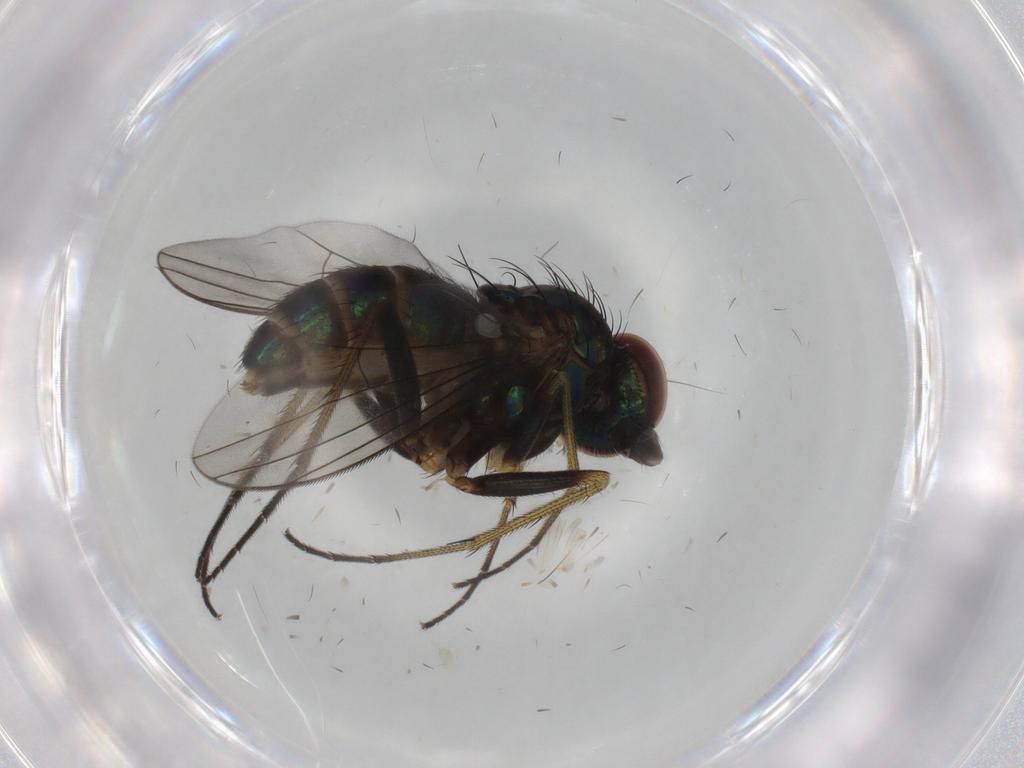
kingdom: Animalia
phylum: Arthropoda
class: Insecta
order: Diptera
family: Dolichopodidae
